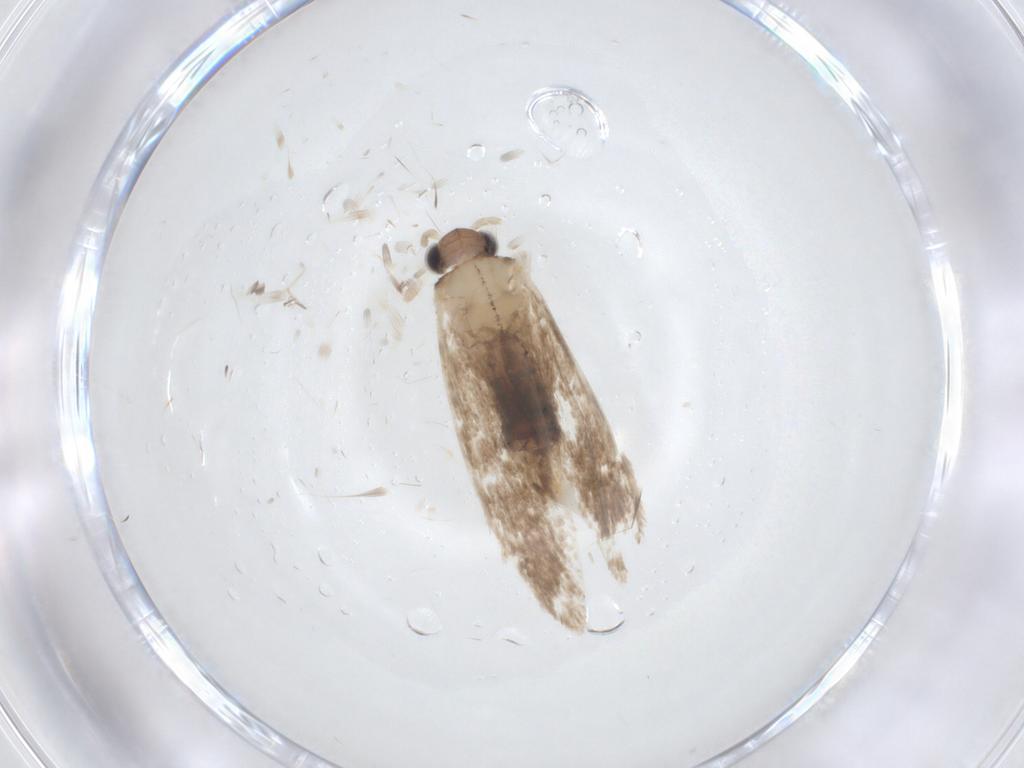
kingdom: Animalia
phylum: Arthropoda
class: Insecta
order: Lepidoptera
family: Dryadaulidae
